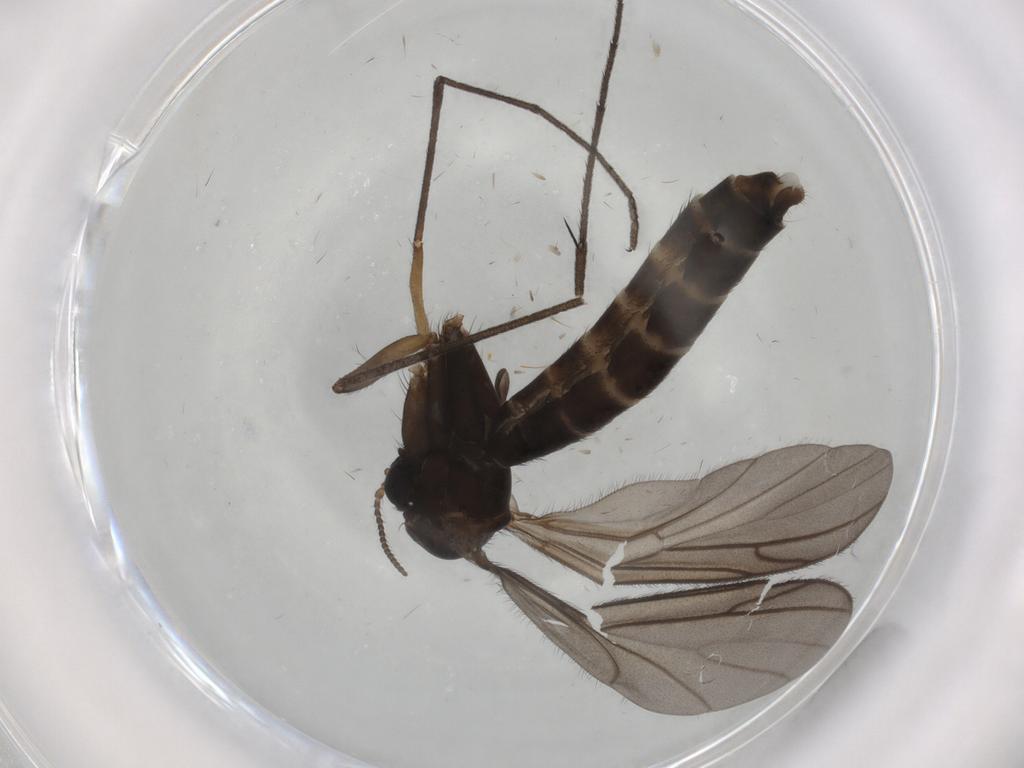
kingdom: Animalia
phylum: Arthropoda
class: Insecta
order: Diptera
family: Ditomyiidae
